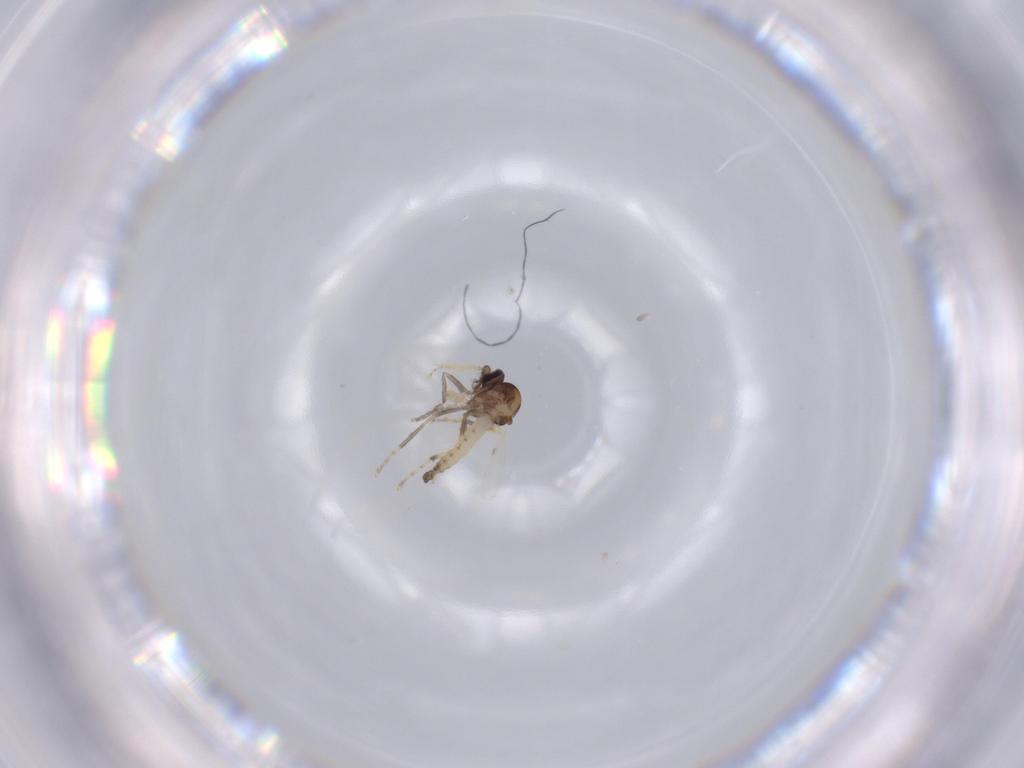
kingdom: Animalia
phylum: Arthropoda
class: Insecta
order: Diptera
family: Ceratopogonidae
